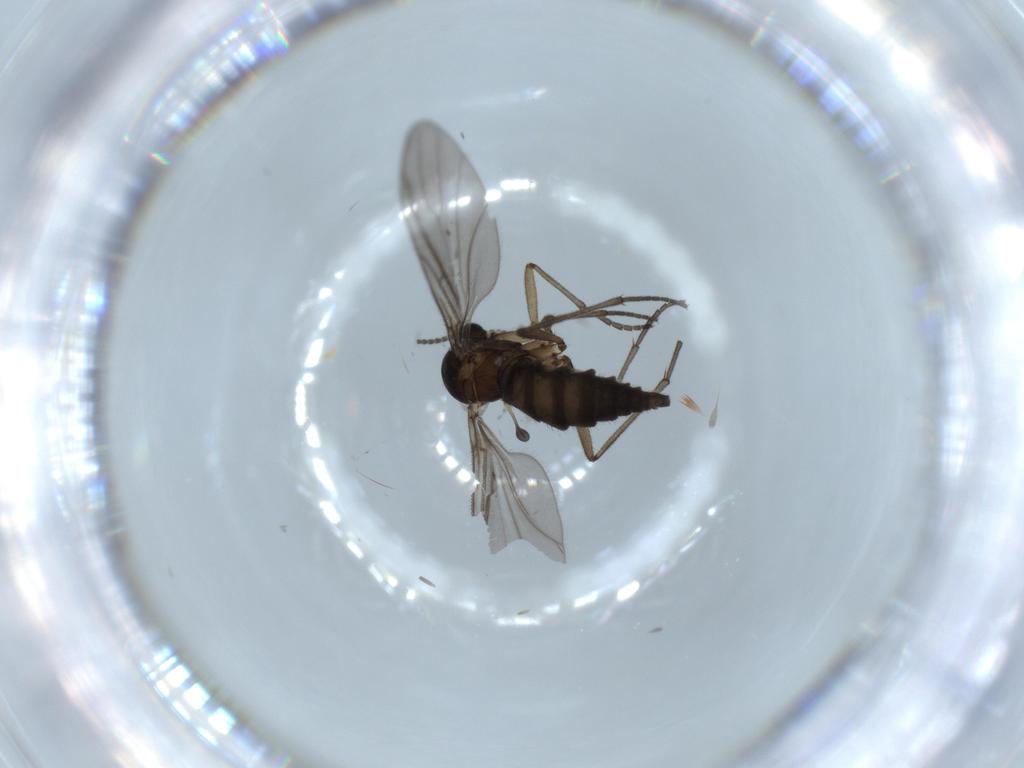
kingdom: Animalia
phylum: Arthropoda
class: Insecta
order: Diptera
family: Sciaridae
